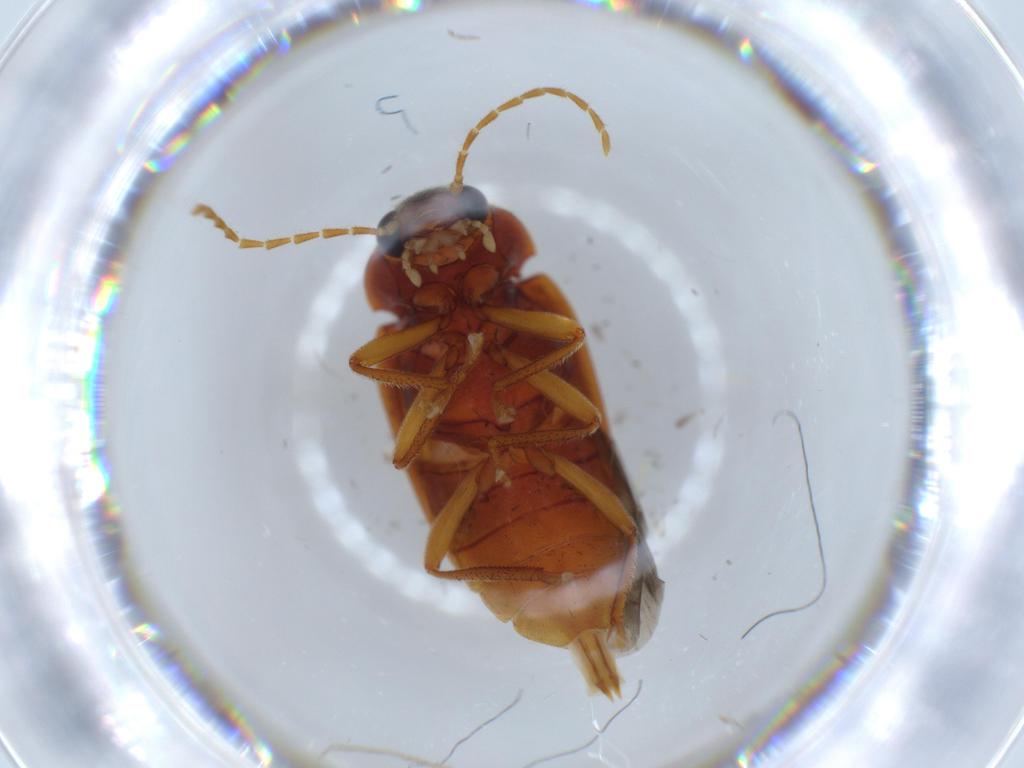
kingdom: Animalia
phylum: Arthropoda
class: Insecta
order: Coleoptera
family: Ptilodactylidae
